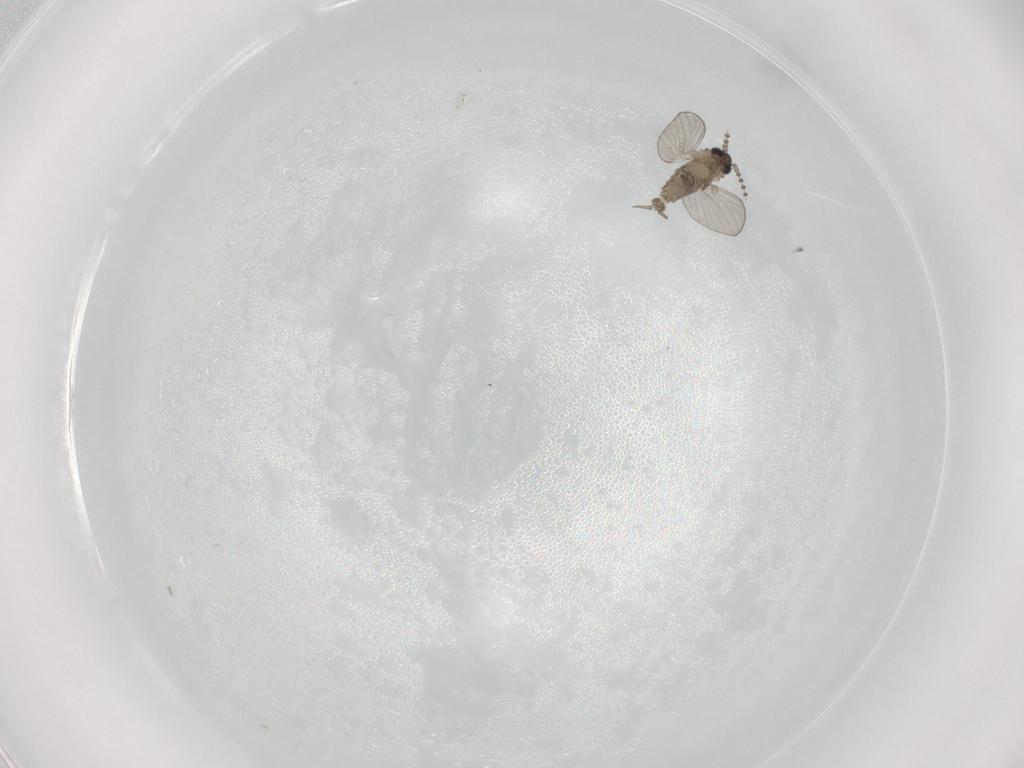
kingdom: Animalia
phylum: Arthropoda
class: Insecta
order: Diptera
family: Psychodidae
